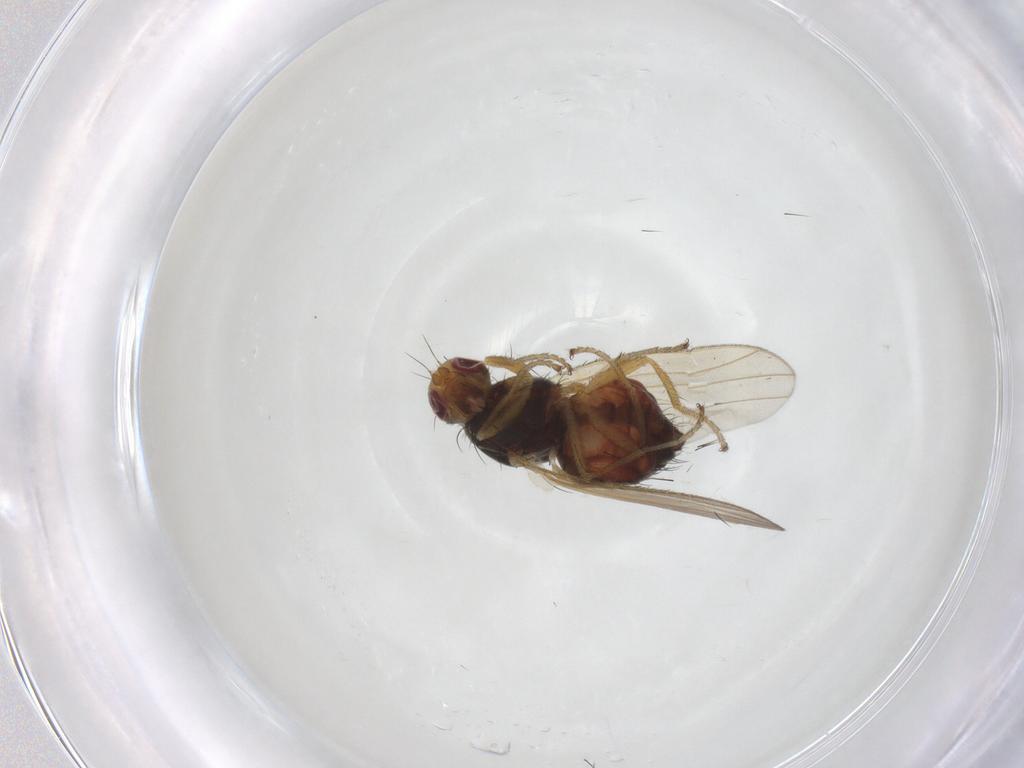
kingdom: Animalia
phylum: Arthropoda
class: Insecta
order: Diptera
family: Heleomyzidae
